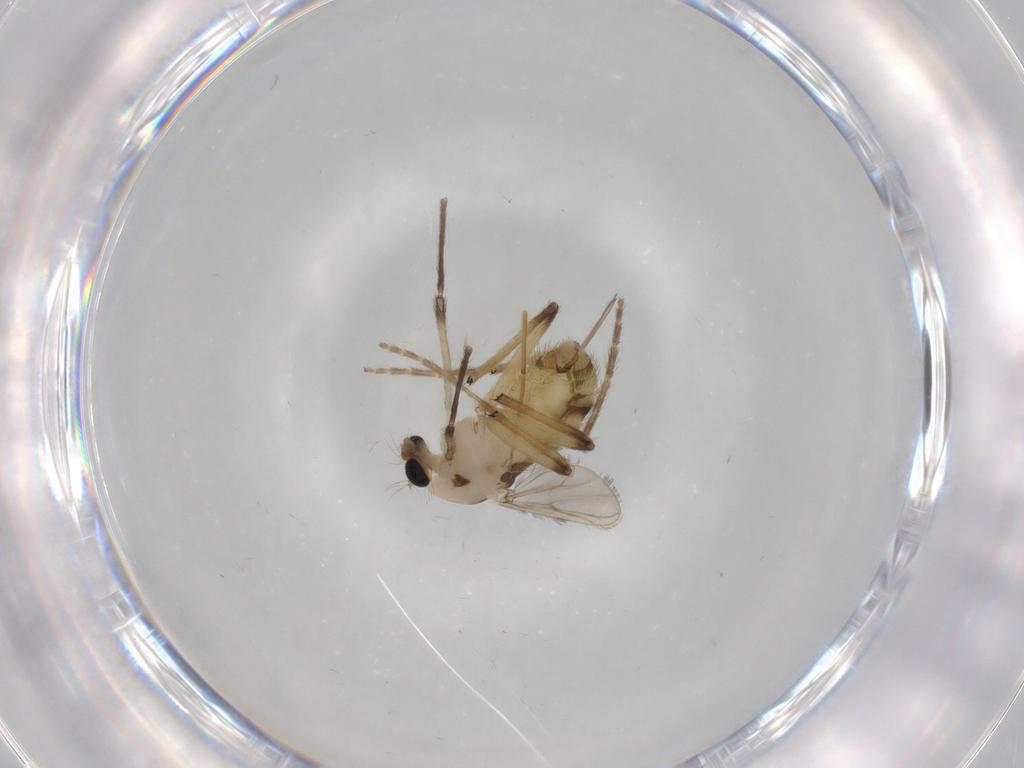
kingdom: Animalia
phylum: Arthropoda
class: Insecta
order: Diptera
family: Chironomidae
